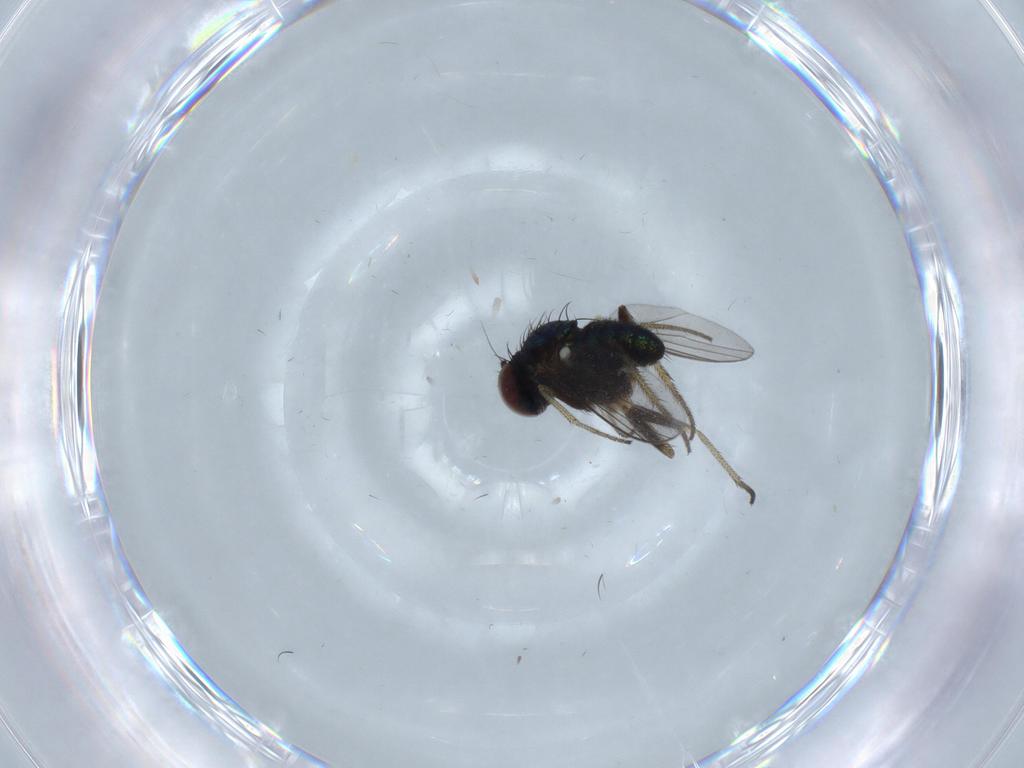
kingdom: Animalia
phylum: Arthropoda
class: Insecta
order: Diptera
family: Dolichopodidae
